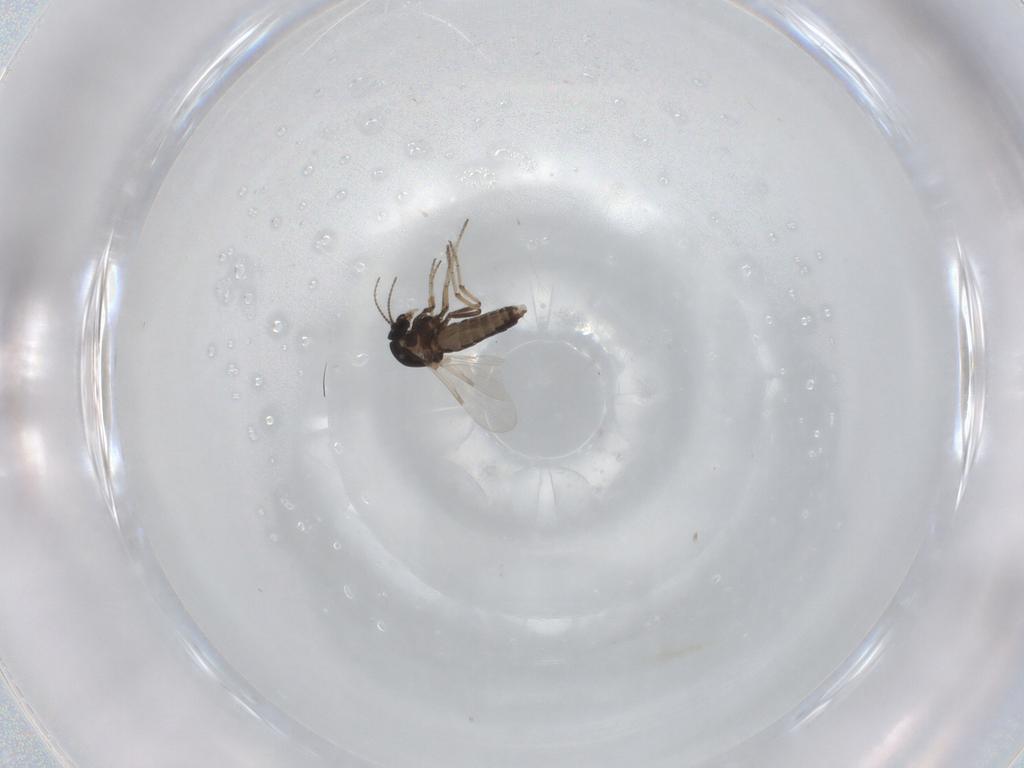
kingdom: Animalia
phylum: Arthropoda
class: Insecta
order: Diptera
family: Ceratopogonidae
